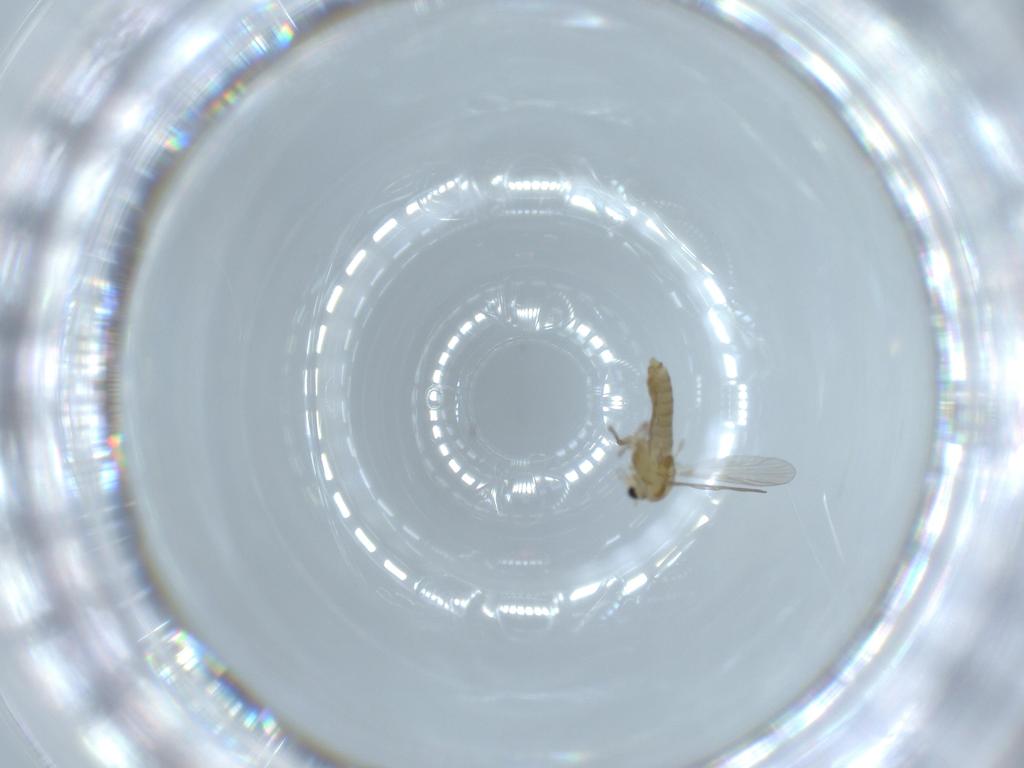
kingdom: Animalia
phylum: Arthropoda
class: Insecta
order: Diptera
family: Chironomidae
